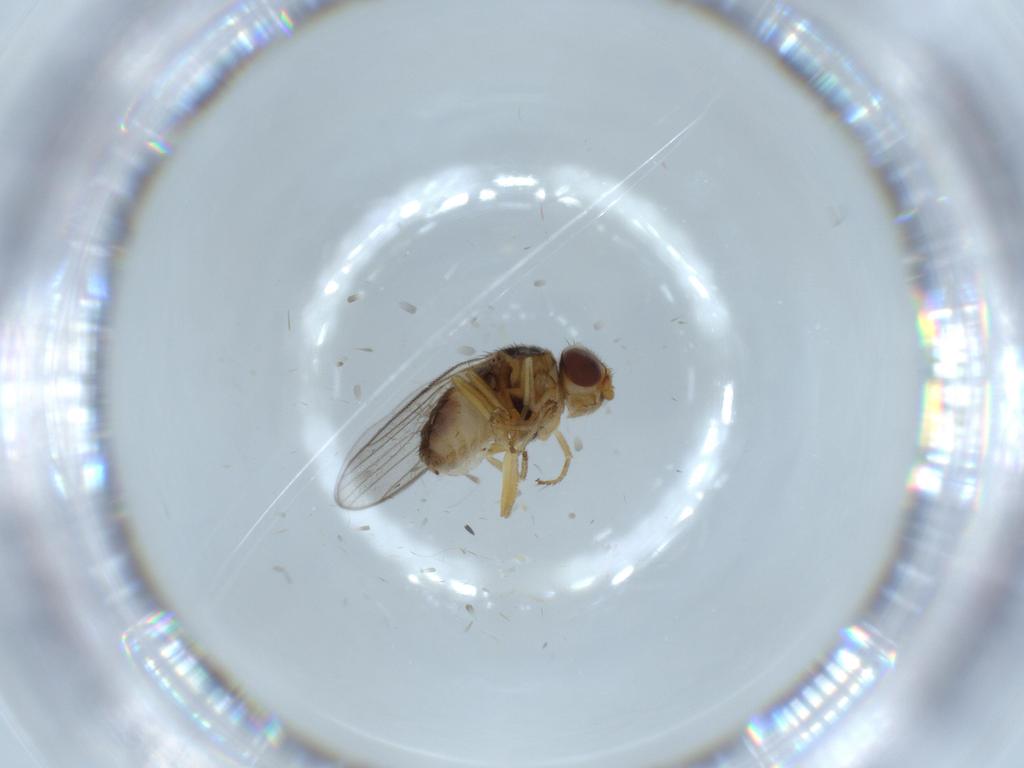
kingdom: Animalia
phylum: Arthropoda
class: Insecta
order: Diptera
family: Chloropidae
